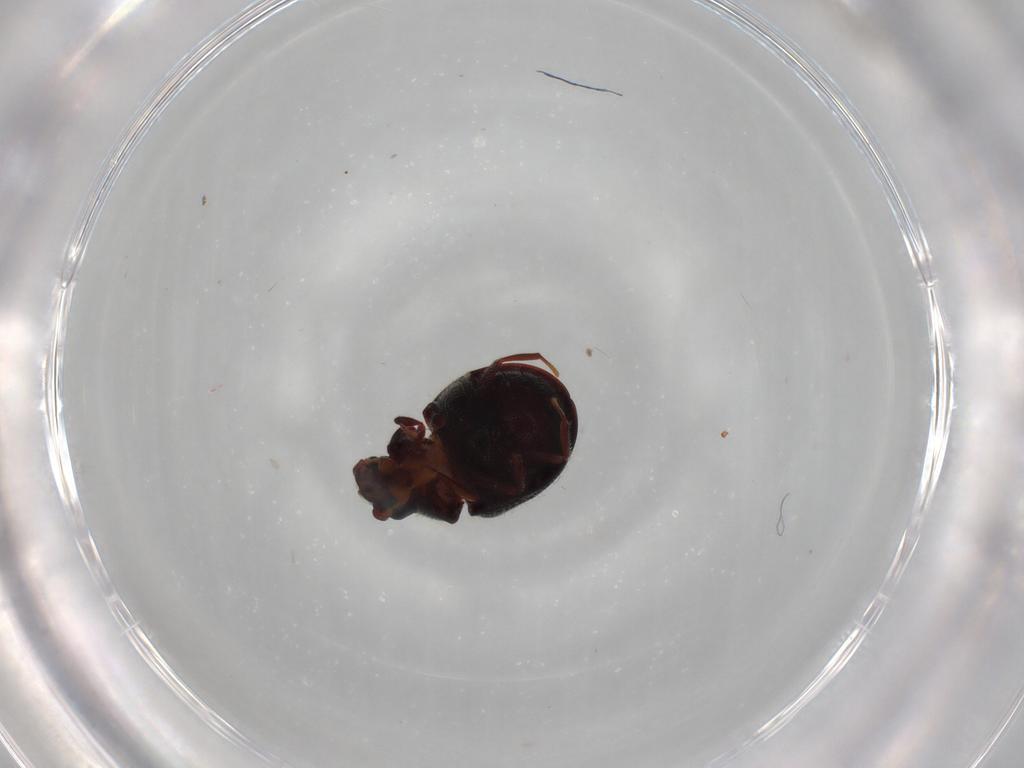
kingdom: Animalia
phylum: Arthropoda
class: Insecta
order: Coleoptera
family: Ptinidae
